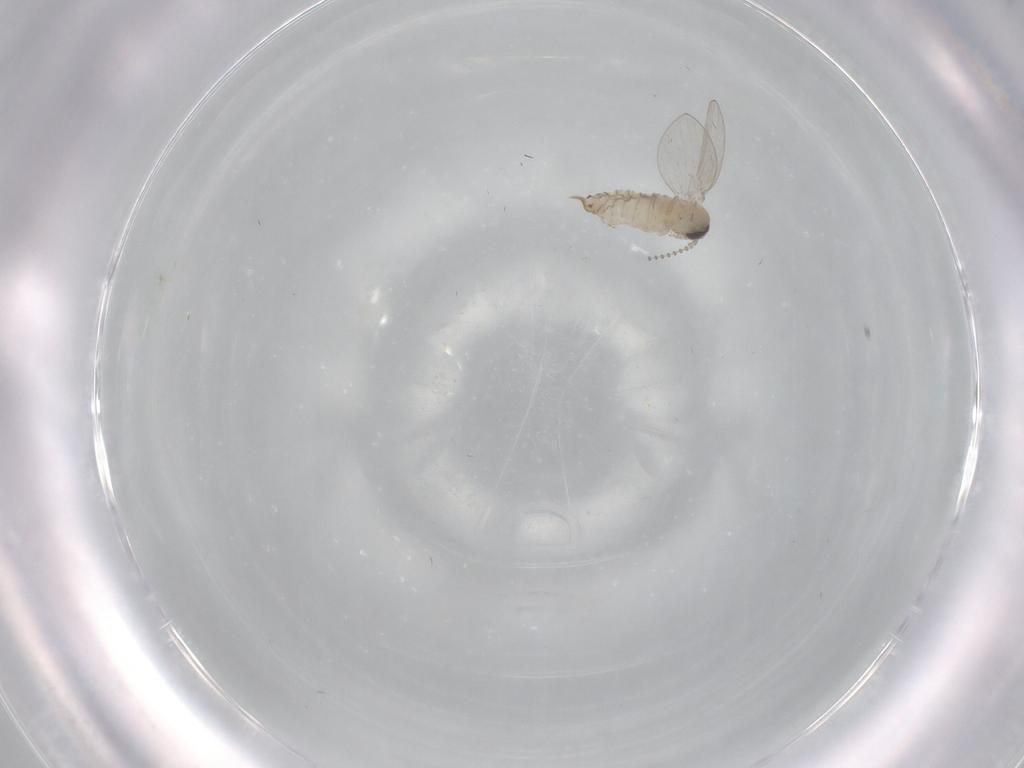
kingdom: Animalia
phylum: Arthropoda
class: Insecta
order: Diptera
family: Psychodidae
